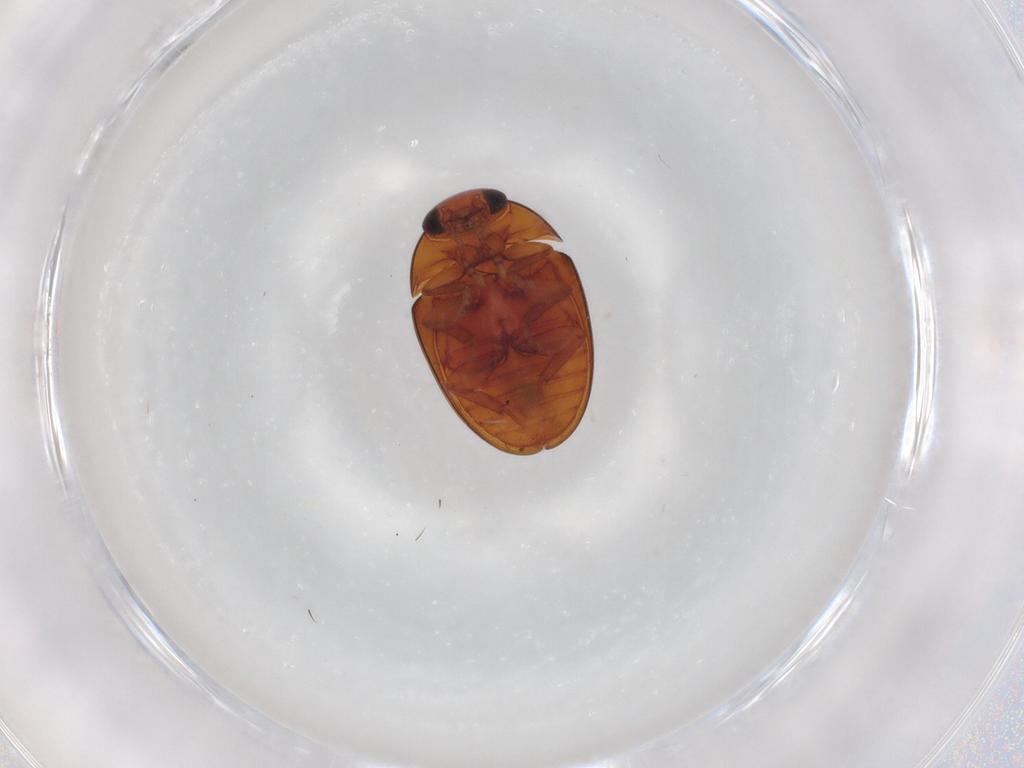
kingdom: Animalia
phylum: Arthropoda
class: Insecta
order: Coleoptera
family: Phalacridae
